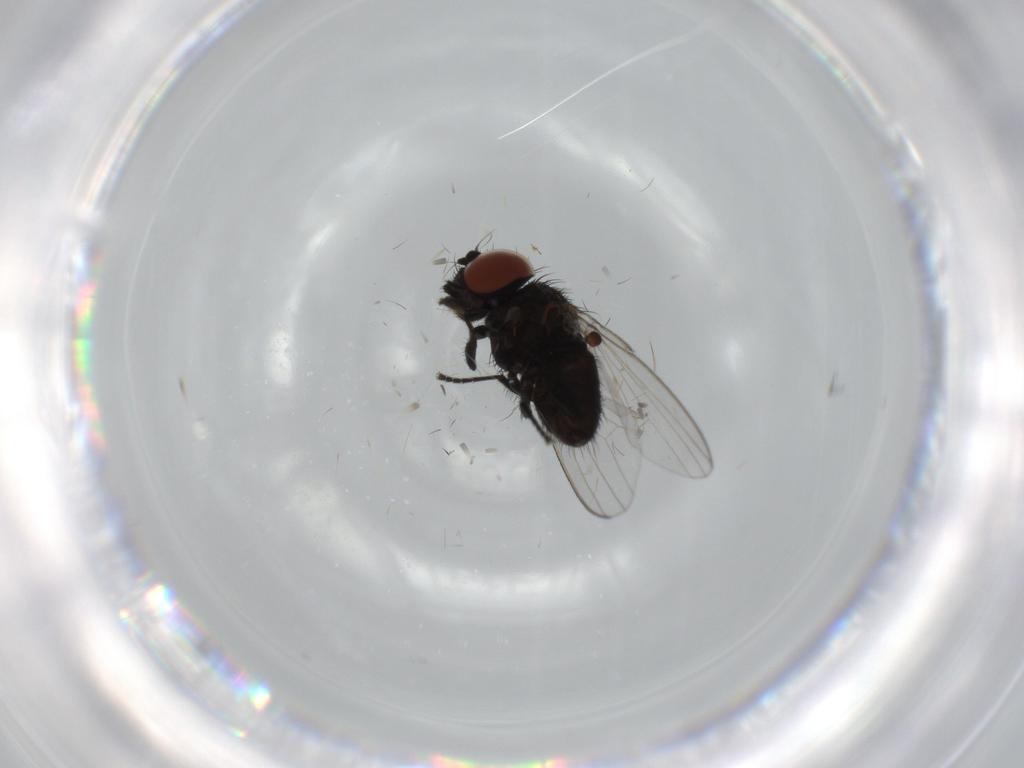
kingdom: Animalia
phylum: Arthropoda
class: Insecta
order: Diptera
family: Milichiidae
